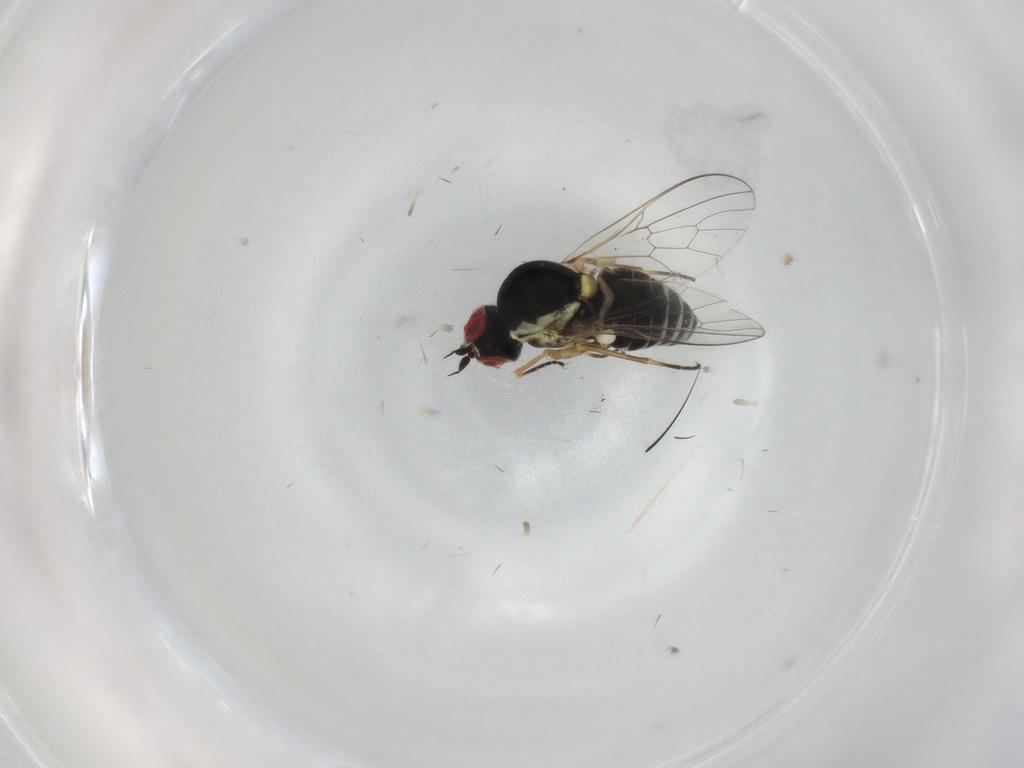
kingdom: Animalia
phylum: Arthropoda
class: Insecta
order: Diptera
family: Bombyliidae
